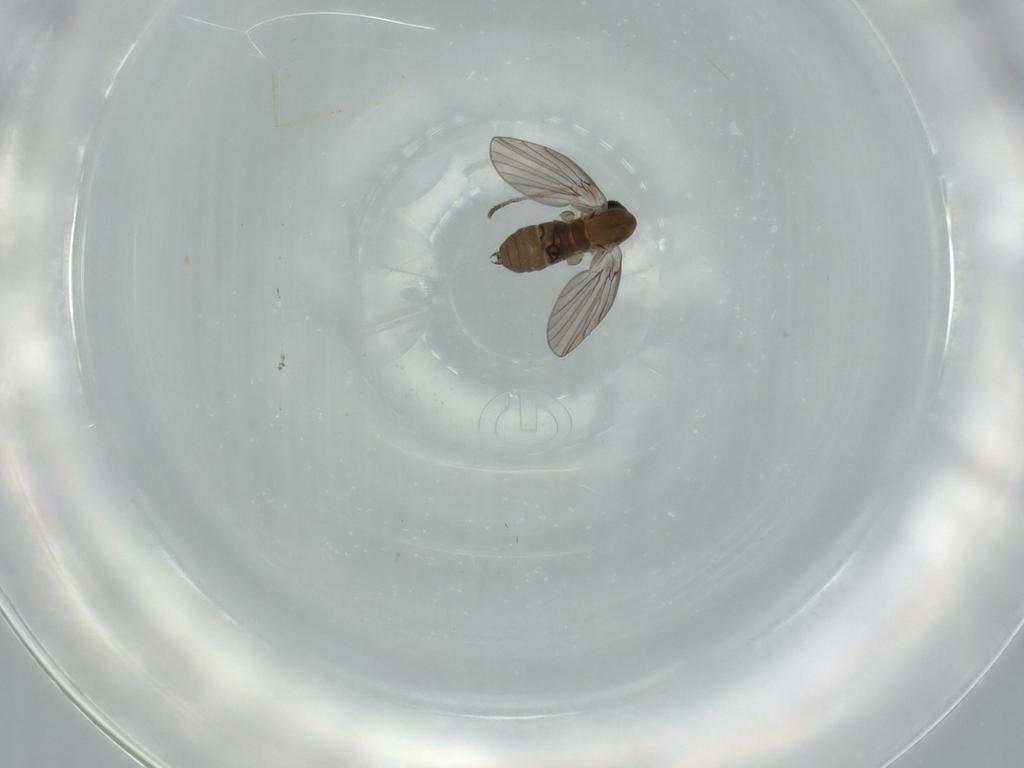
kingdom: Animalia
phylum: Arthropoda
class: Insecta
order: Diptera
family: Cecidomyiidae
